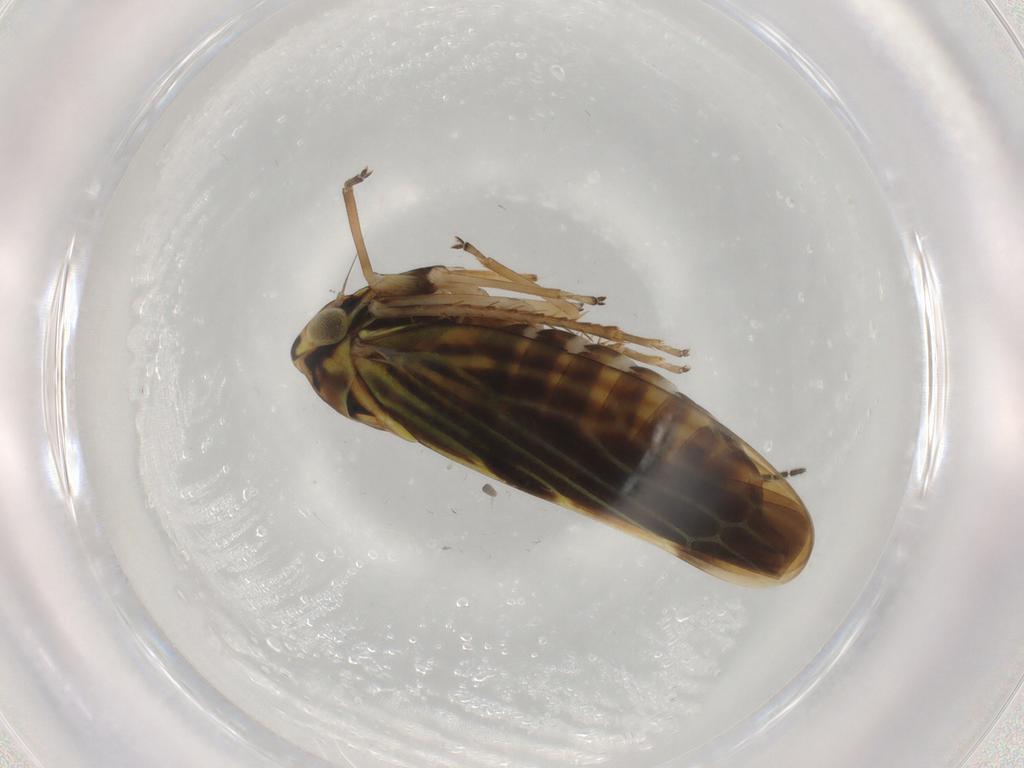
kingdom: Animalia
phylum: Arthropoda
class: Insecta
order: Hemiptera
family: Cicadellidae
